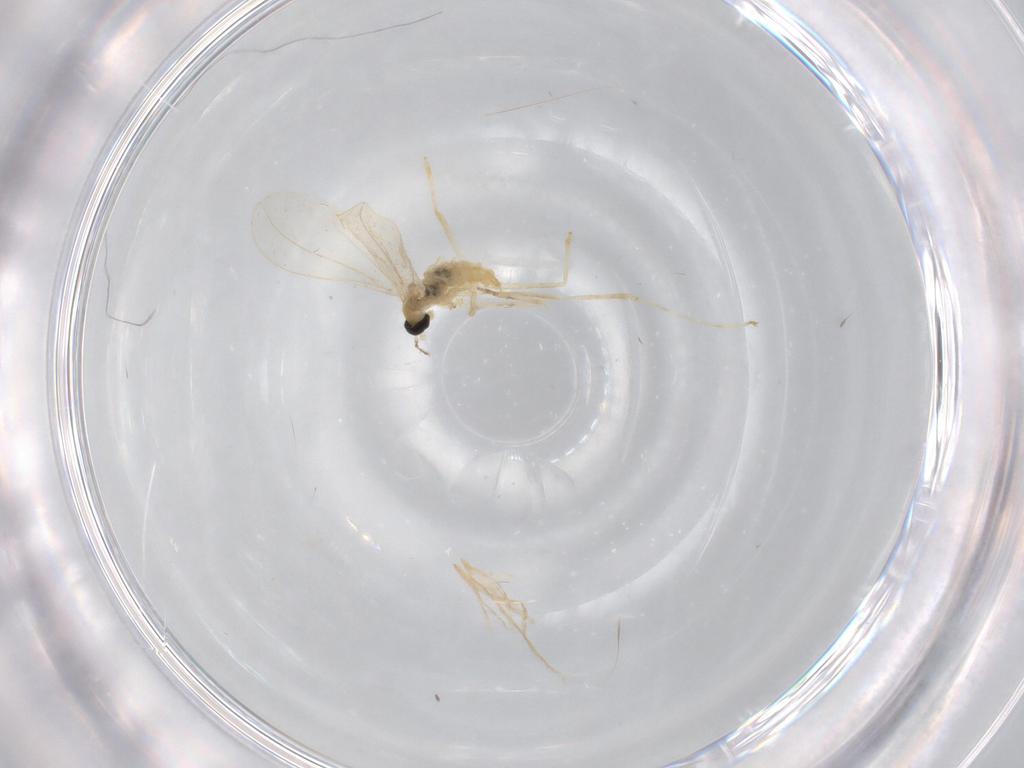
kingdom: Animalia
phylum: Arthropoda
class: Insecta
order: Diptera
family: Cecidomyiidae
